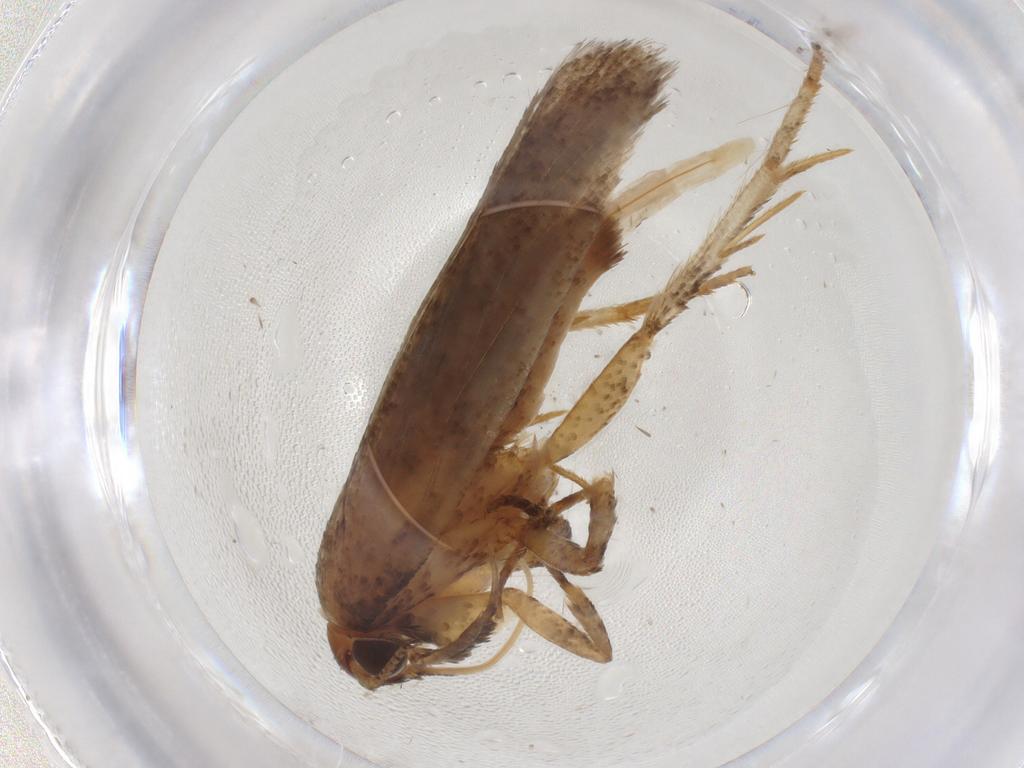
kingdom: Animalia
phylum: Arthropoda
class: Insecta
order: Lepidoptera
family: Gelechiidae
